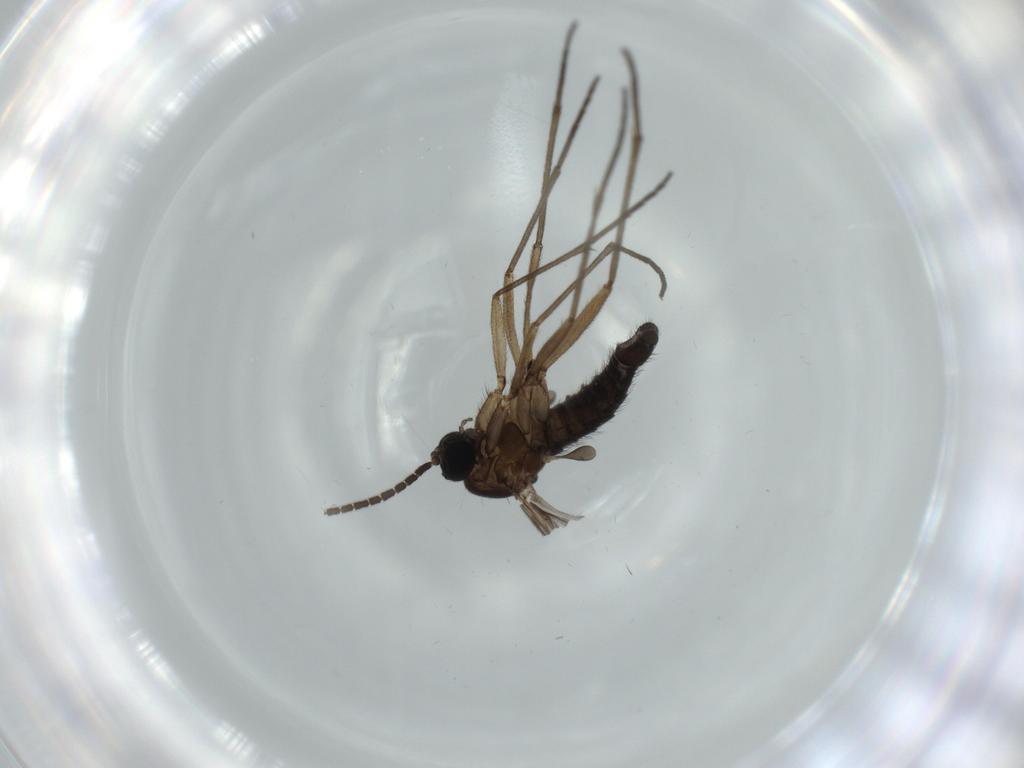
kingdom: Animalia
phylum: Arthropoda
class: Insecta
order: Diptera
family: Sciaridae
